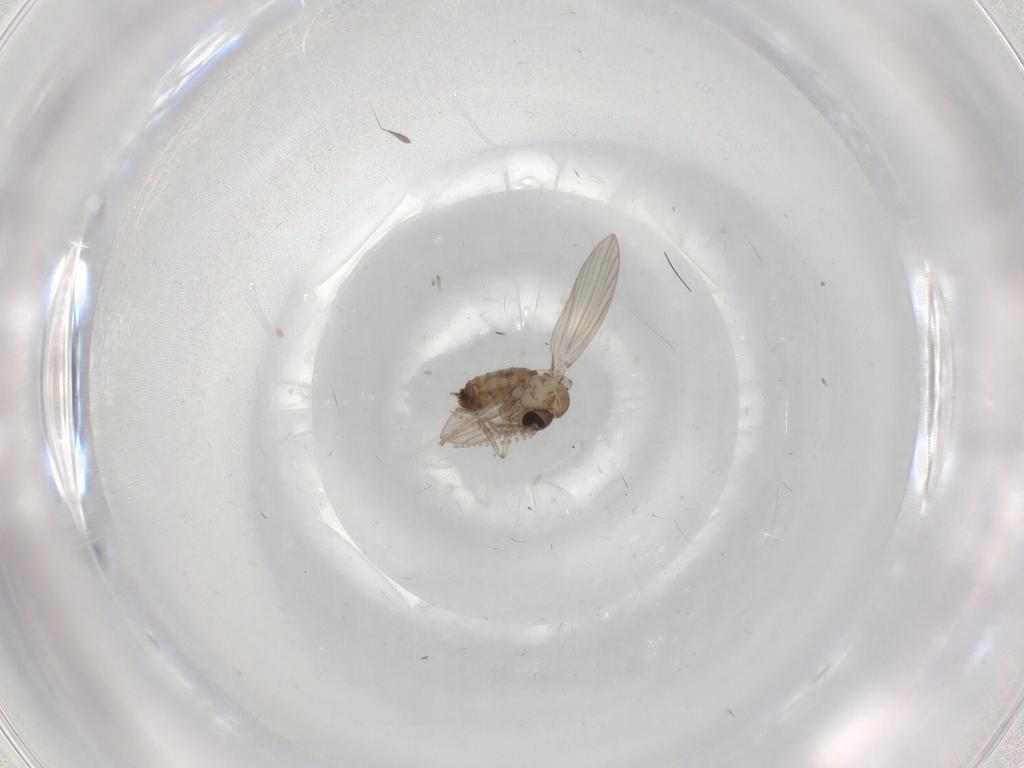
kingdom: Animalia
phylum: Arthropoda
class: Insecta
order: Diptera
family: Psychodidae
